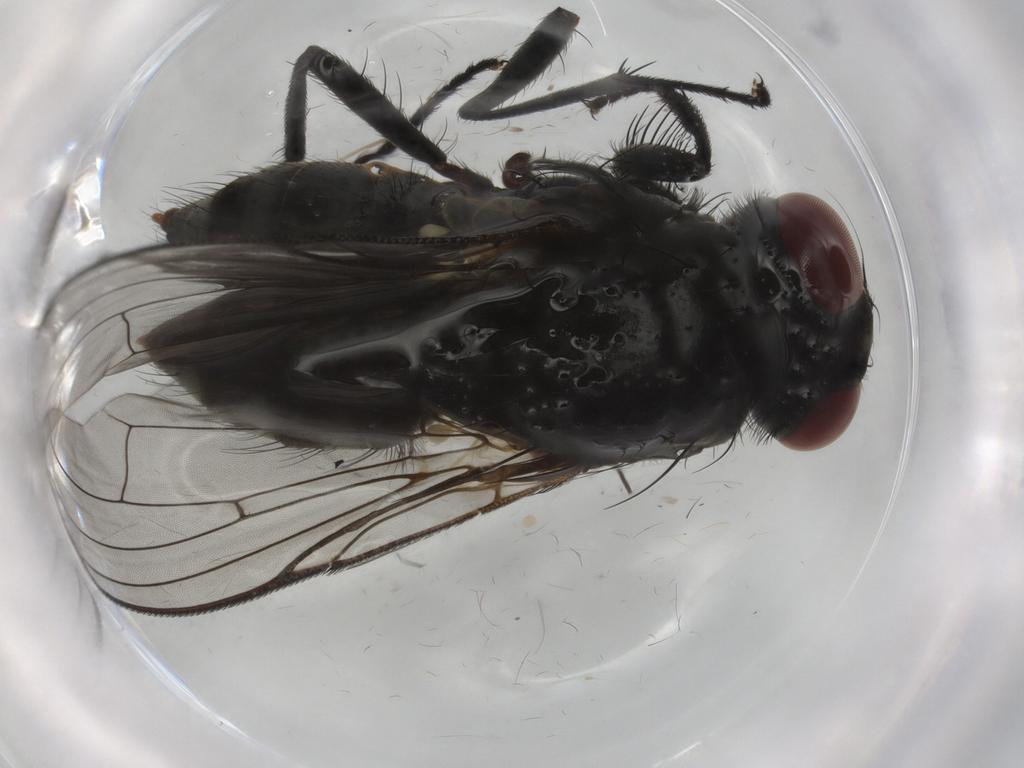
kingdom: Animalia
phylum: Arthropoda
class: Insecta
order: Diptera
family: Muscidae
